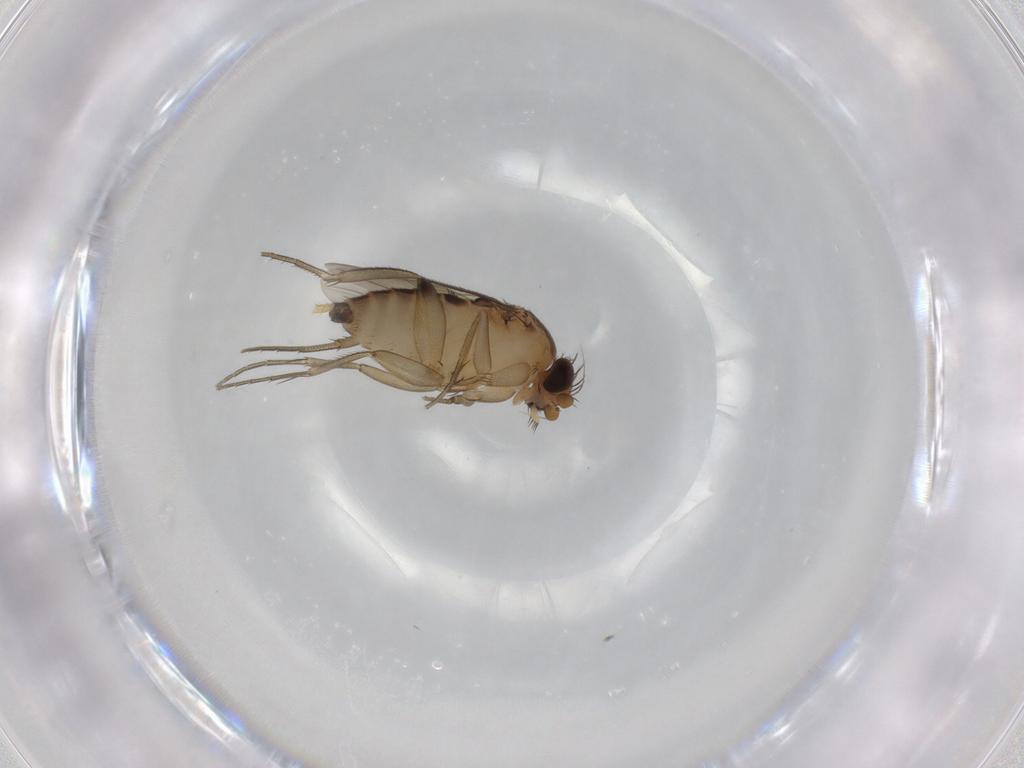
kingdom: Animalia
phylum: Arthropoda
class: Insecta
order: Diptera
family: Phoridae
